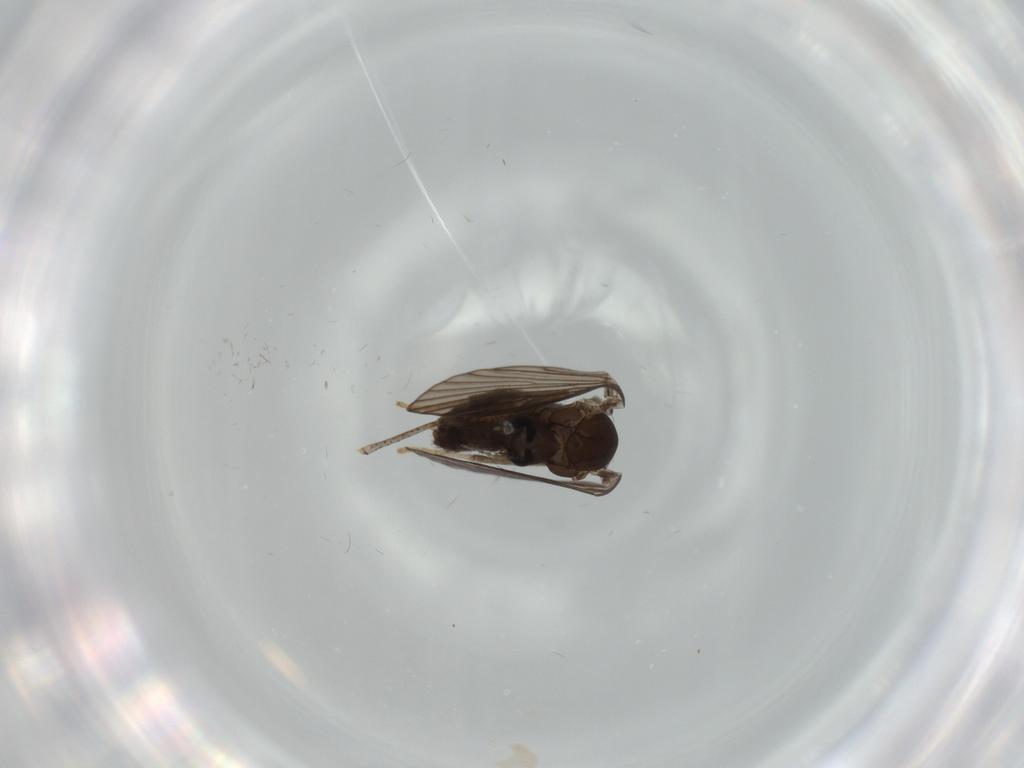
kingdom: Animalia
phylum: Arthropoda
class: Insecta
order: Diptera
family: Psychodidae
